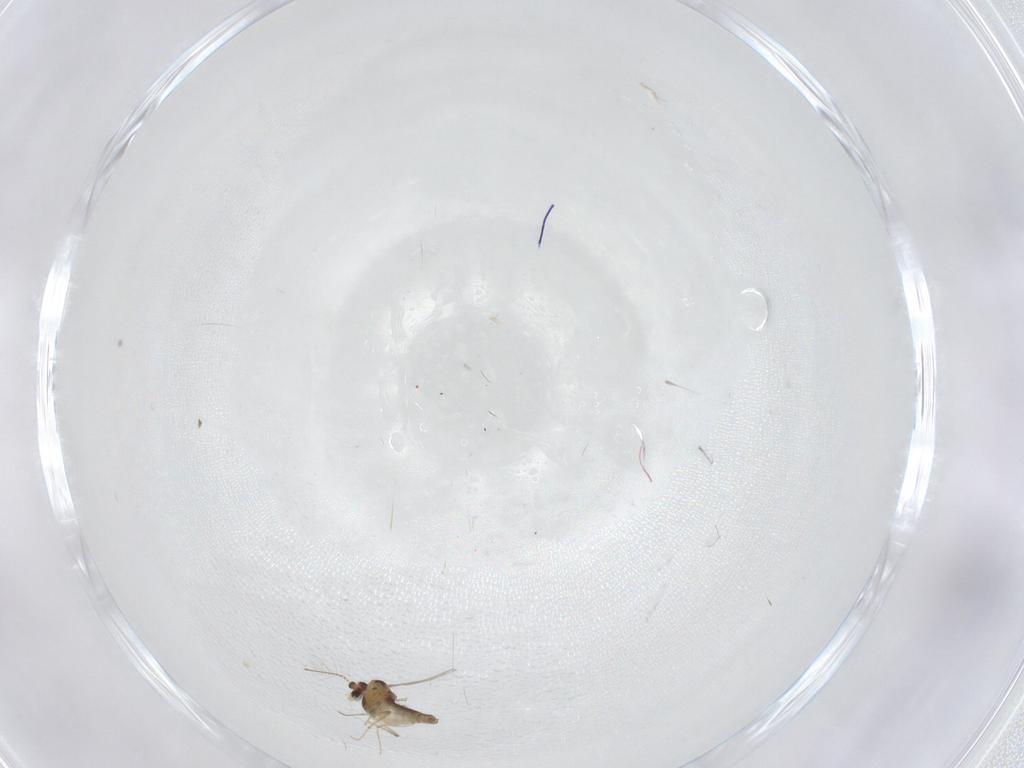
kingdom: Animalia
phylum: Arthropoda
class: Insecta
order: Diptera
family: Chironomidae
